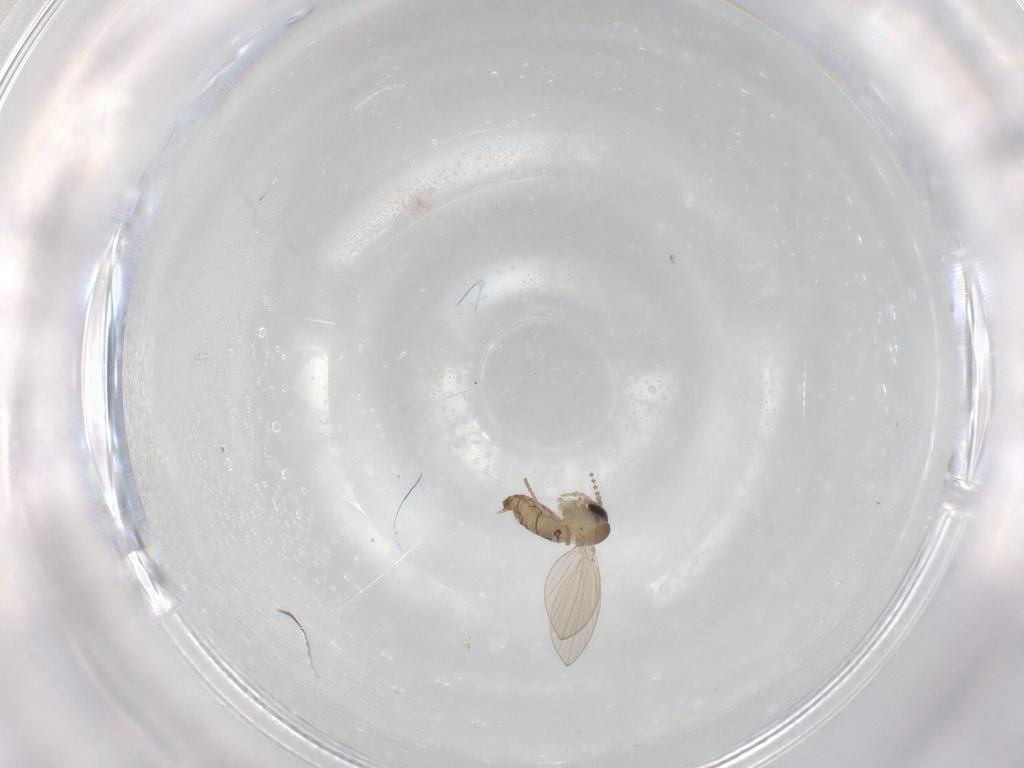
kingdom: Animalia
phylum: Arthropoda
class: Insecta
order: Diptera
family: Psychodidae
